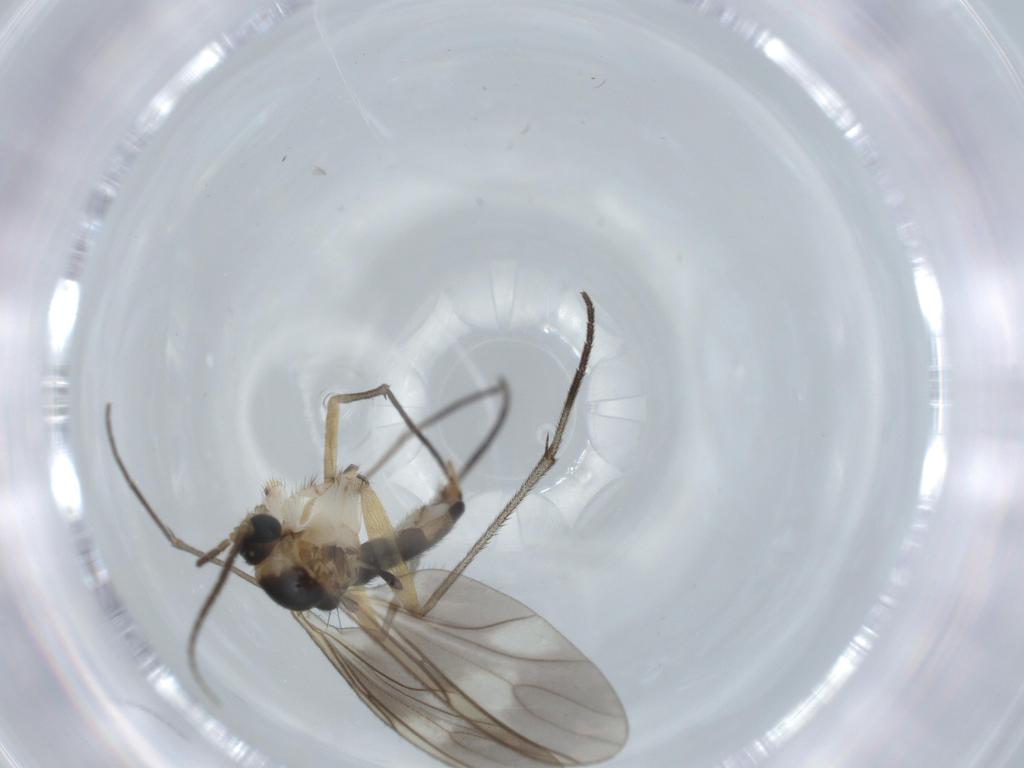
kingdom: Animalia
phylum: Arthropoda
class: Insecta
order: Diptera
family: Sciaridae
